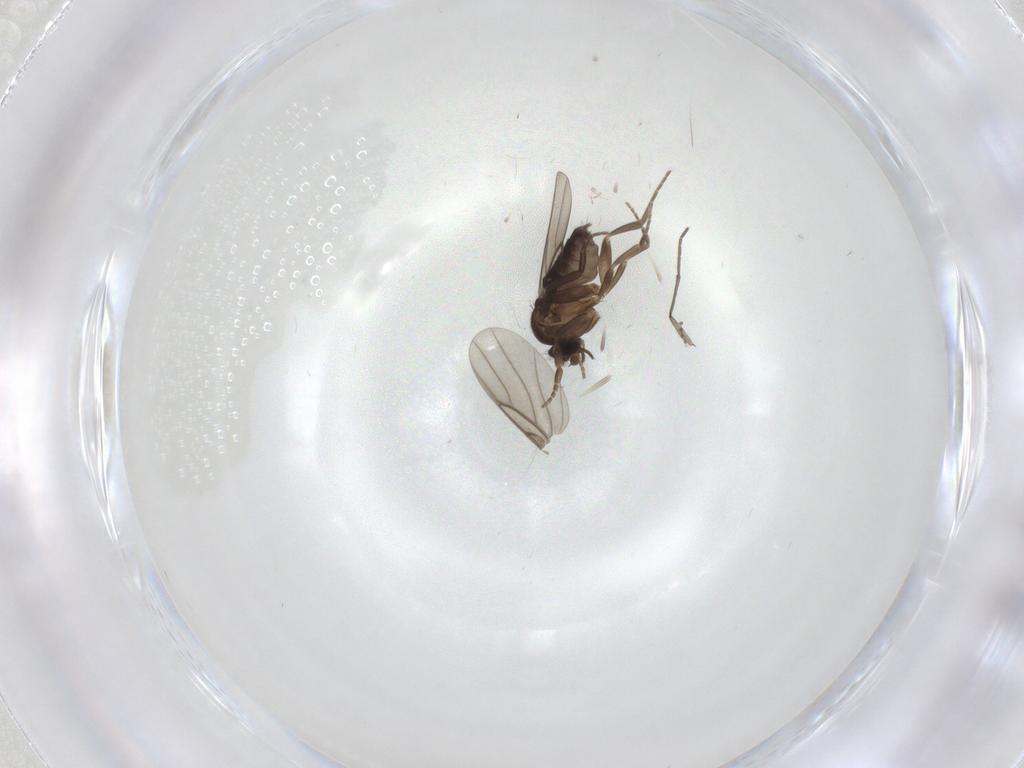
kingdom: Animalia
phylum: Arthropoda
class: Insecta
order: Diptera
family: Phoridae
